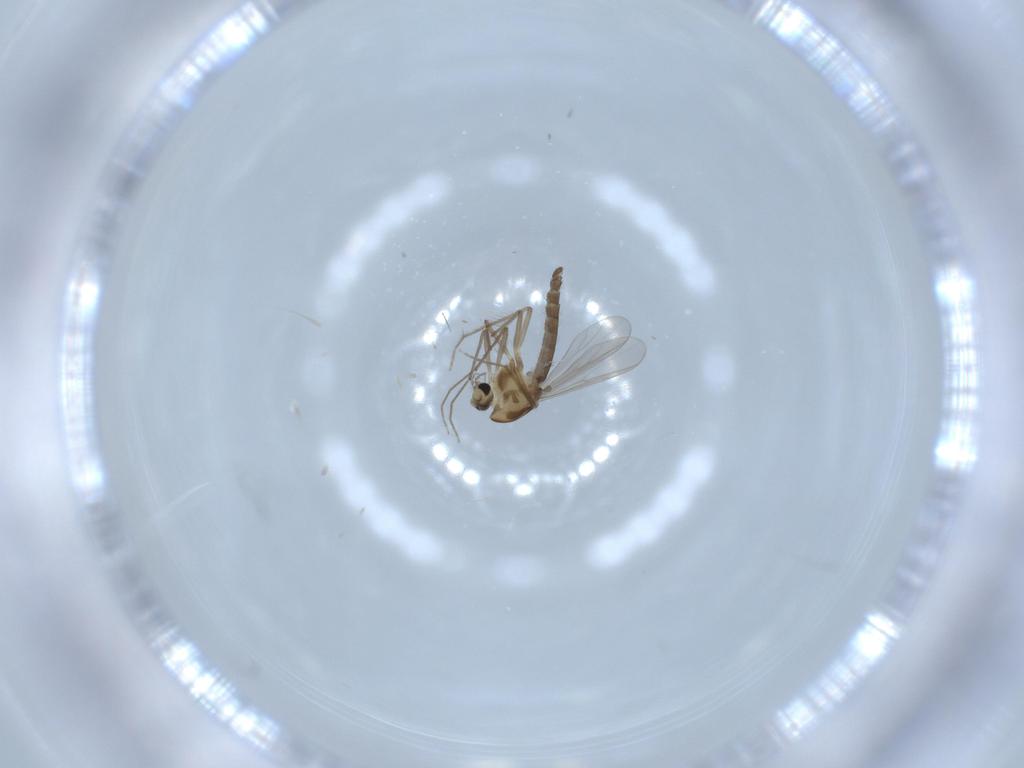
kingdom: Animalia
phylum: Arthropoda
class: Insecta
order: Diptera
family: Chironomidae
